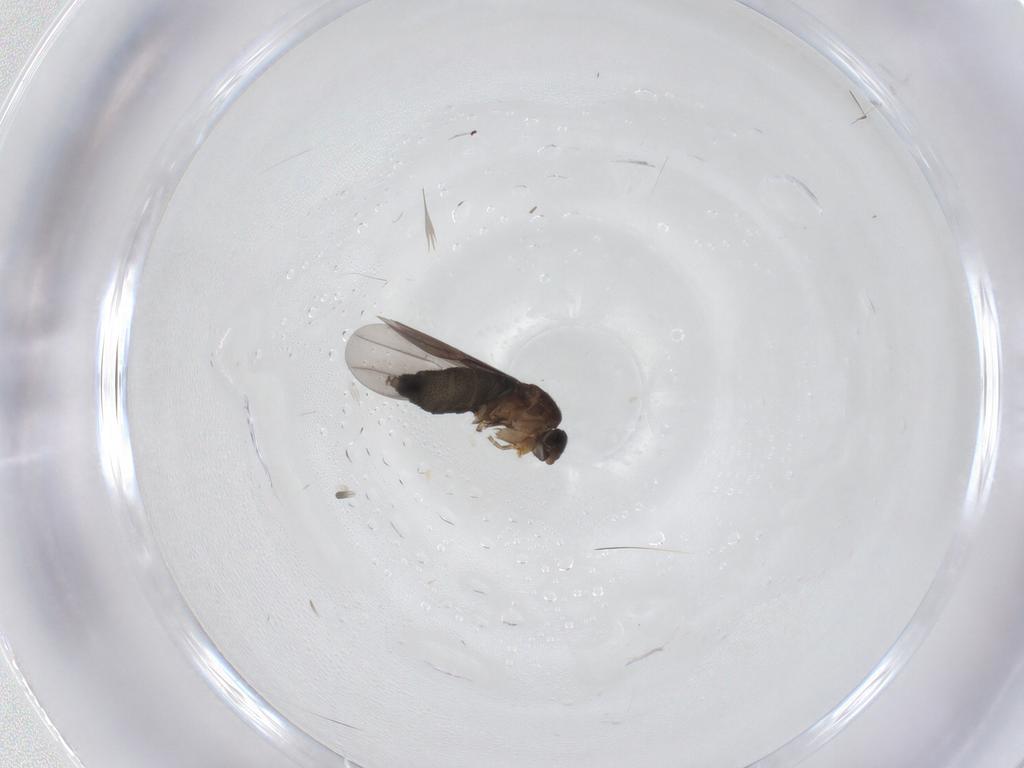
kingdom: Animalia
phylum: Arthropoda
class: Insecta
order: Diptera
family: Phoridae
